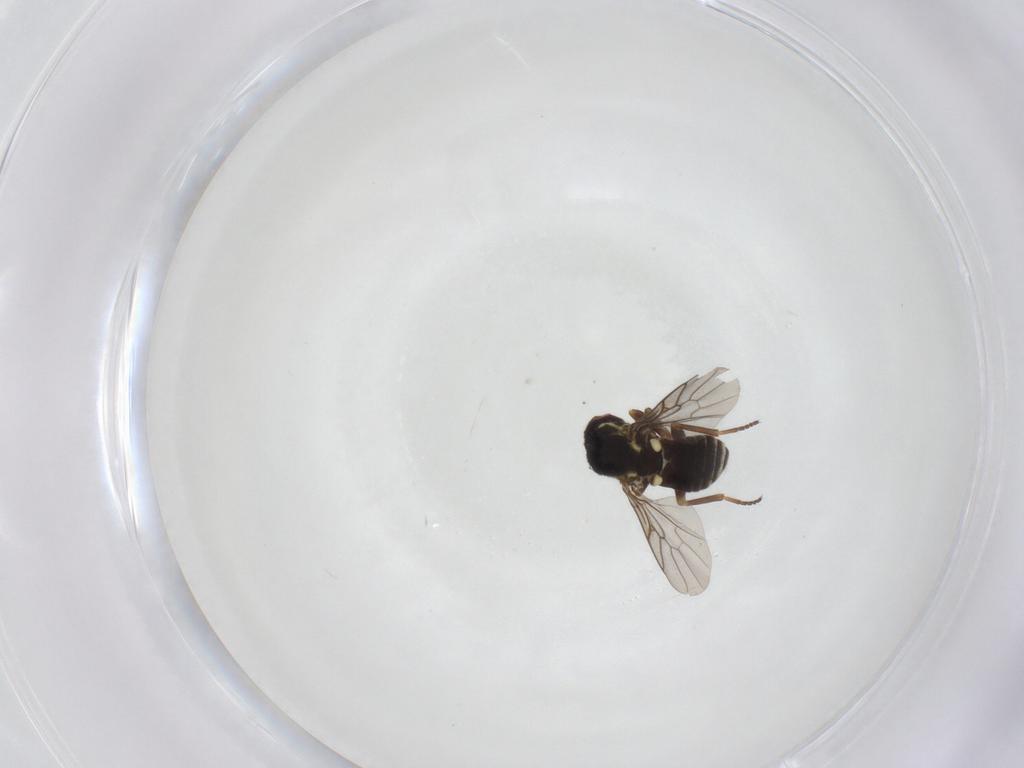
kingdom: Animalia
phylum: Arthropoda
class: Insecta
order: Diptera
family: Bombyliidae
